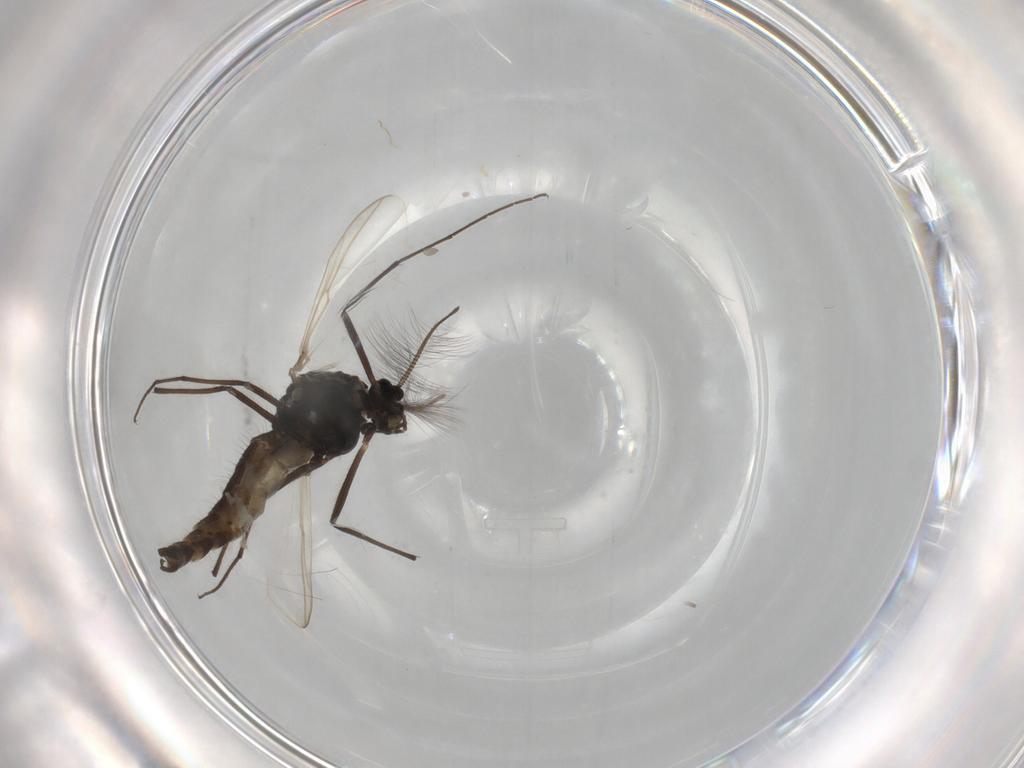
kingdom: Animalia
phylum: Arthropoda
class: Insecta
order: Diptera
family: Chironomidae
